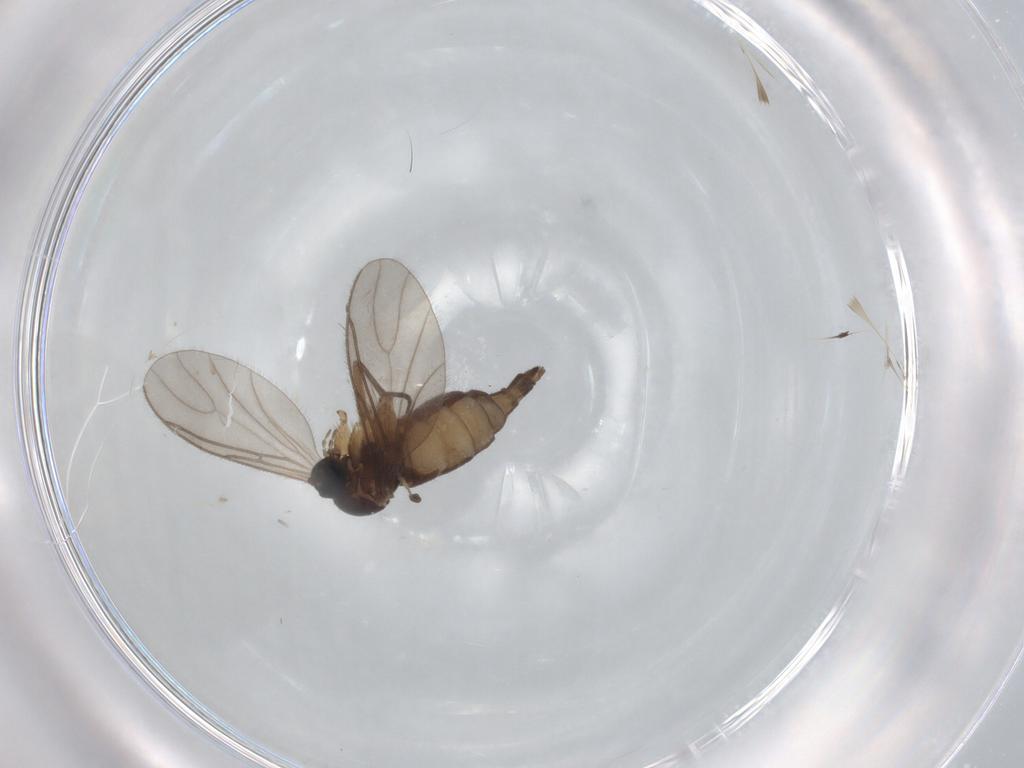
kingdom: Animalia
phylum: Arthropoda
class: Insecta
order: Diptera
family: Sciaridae
